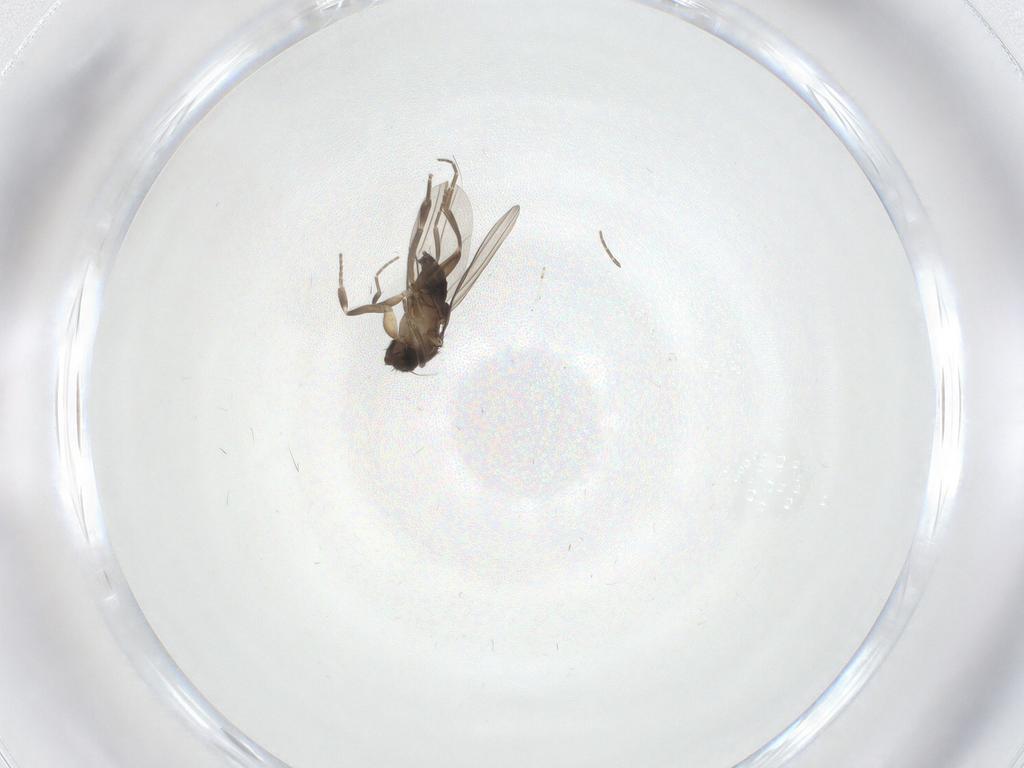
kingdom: Animalia
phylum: Arthropoda
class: Insecta
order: Diptera
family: Phoridae
